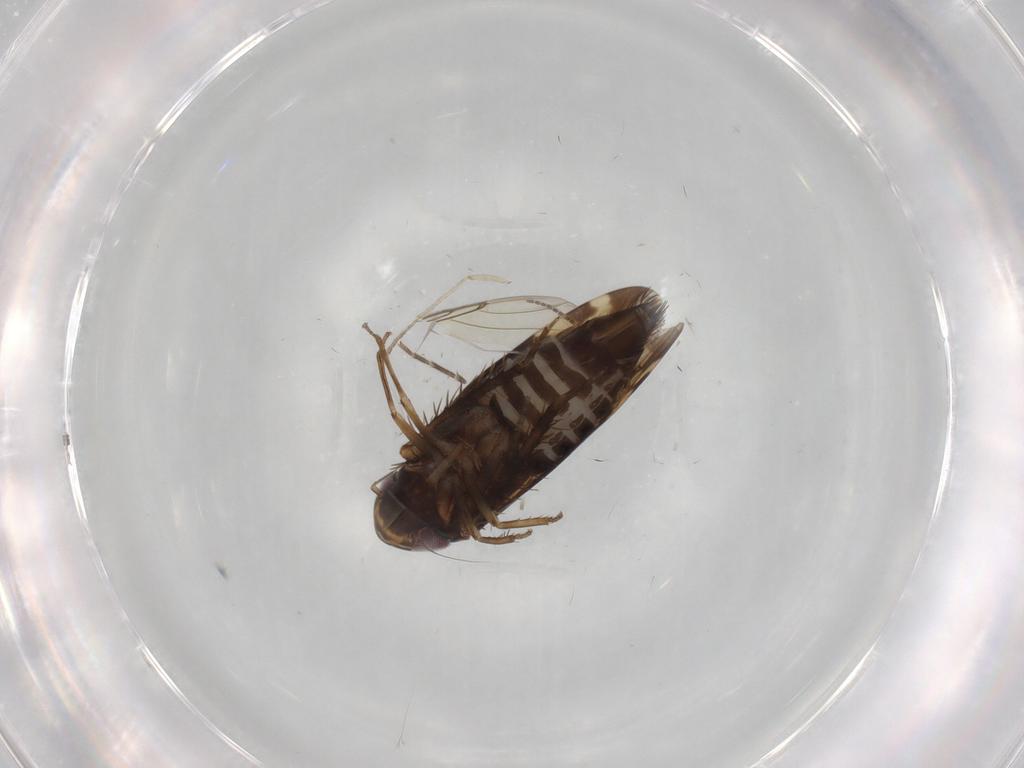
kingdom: Animalia
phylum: Arthropoda
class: Insecta
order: Hemiptera
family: Cicadellidae
